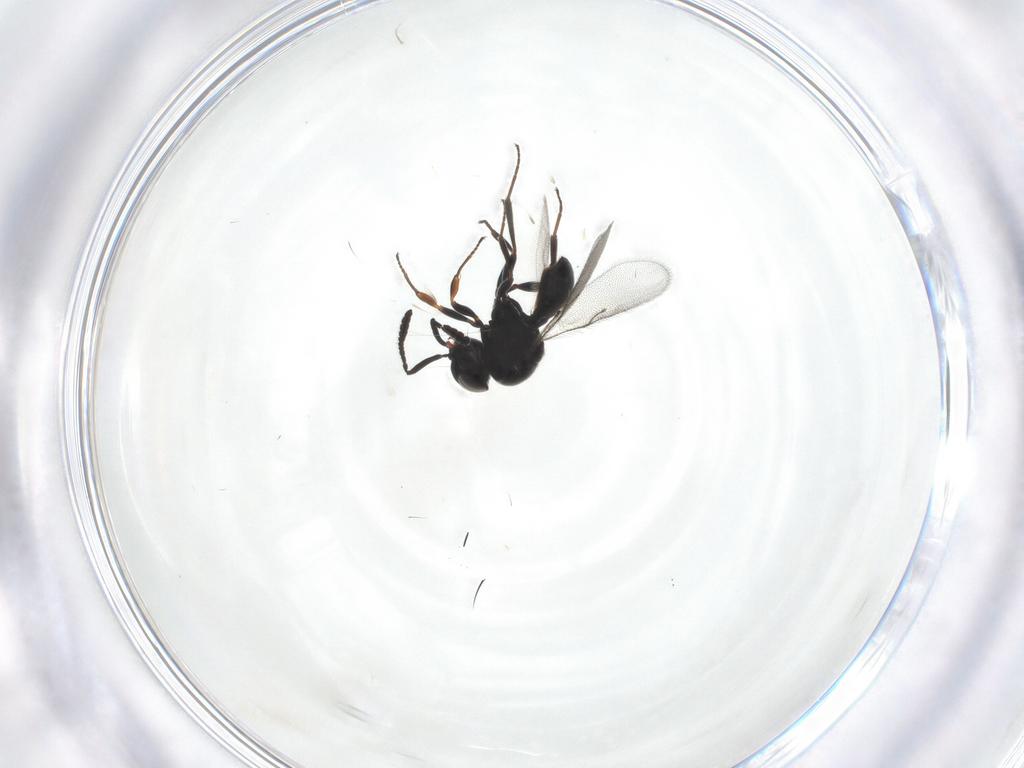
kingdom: Animalia
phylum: Arthropoda
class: Insecta
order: Hymenoptera
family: Scelionidae
